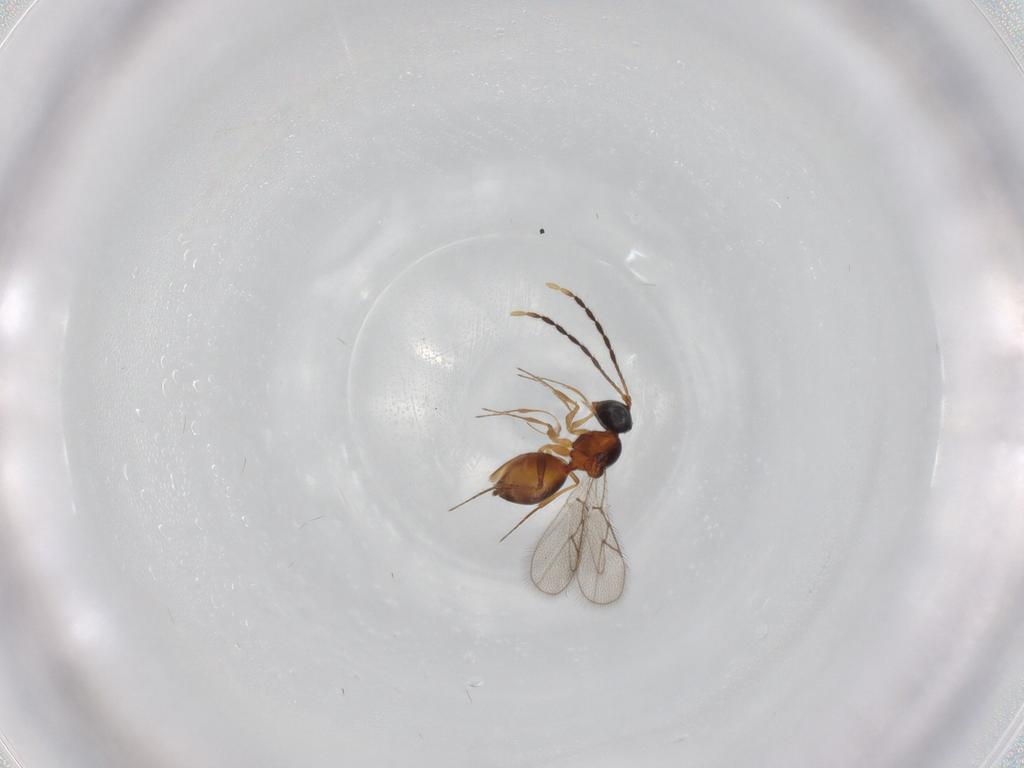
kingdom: Animalia
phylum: Arthropoda
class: Insecta
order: Hymenoptera
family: Figitidae
